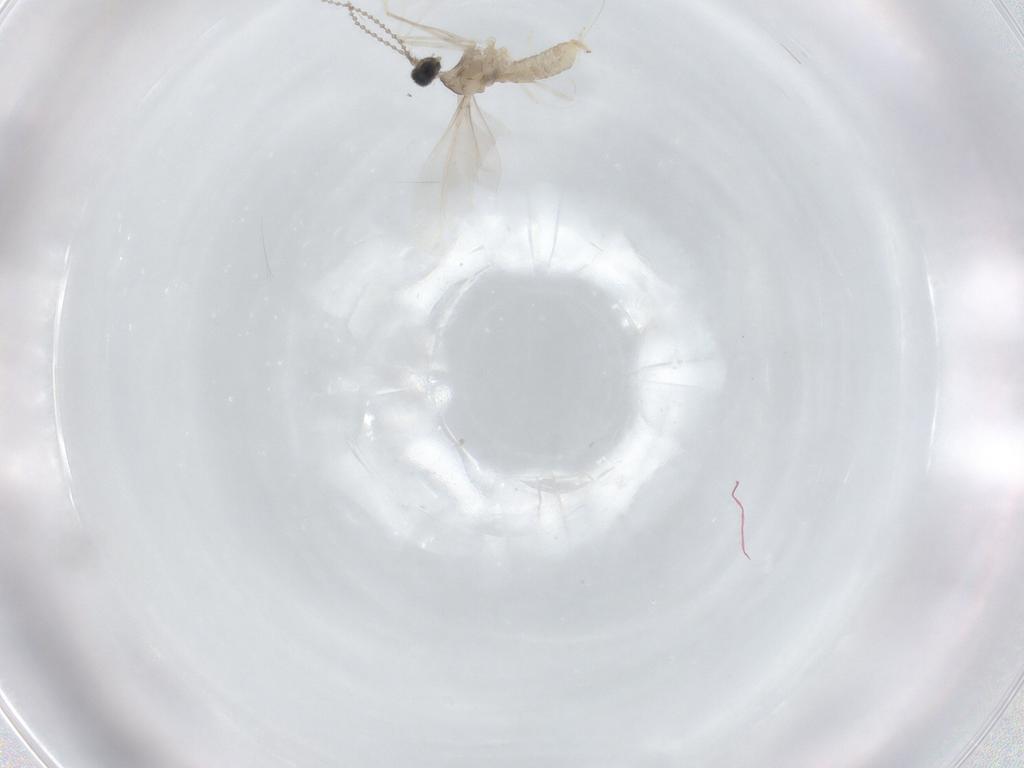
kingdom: Animalia
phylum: Arthropoda
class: Insecta
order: Diptera
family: Cecidomyiidae
